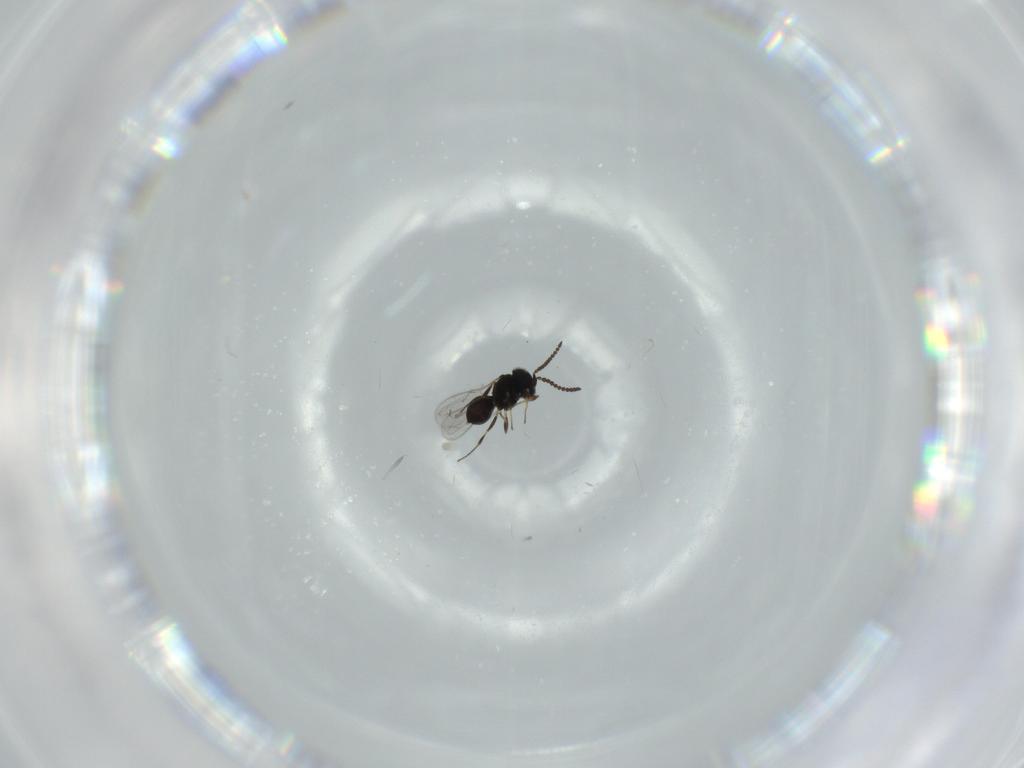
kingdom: Animalia
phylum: Arthropoda
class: Insecta
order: Hymenoptera
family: Scelionidae
